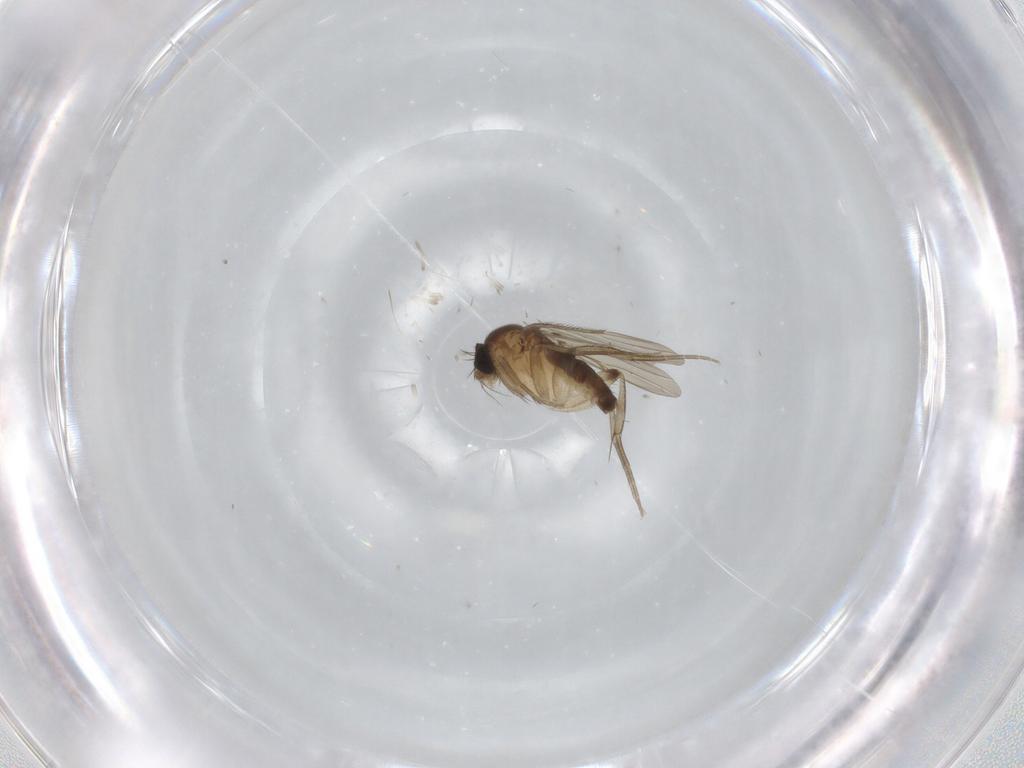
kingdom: Animalia
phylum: Arthropoda
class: Insecta
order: Diptera
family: Phoridae
